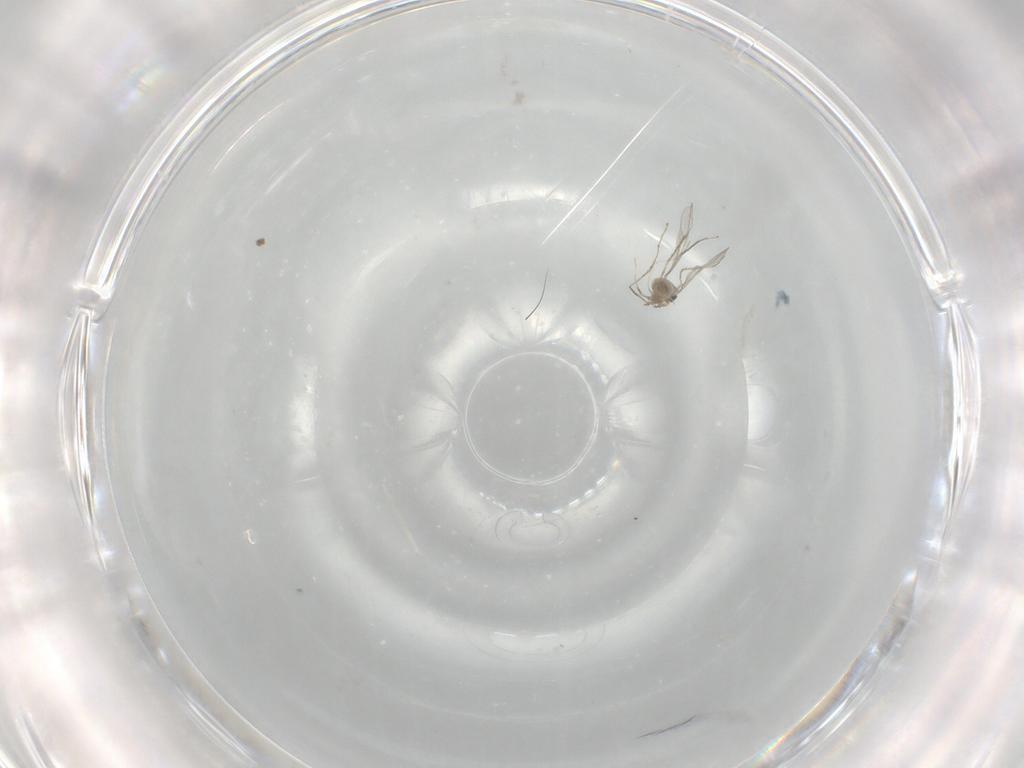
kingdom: Animalia
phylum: Arthropoda
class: Insecta
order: Diptera
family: Cecidomyiidae
